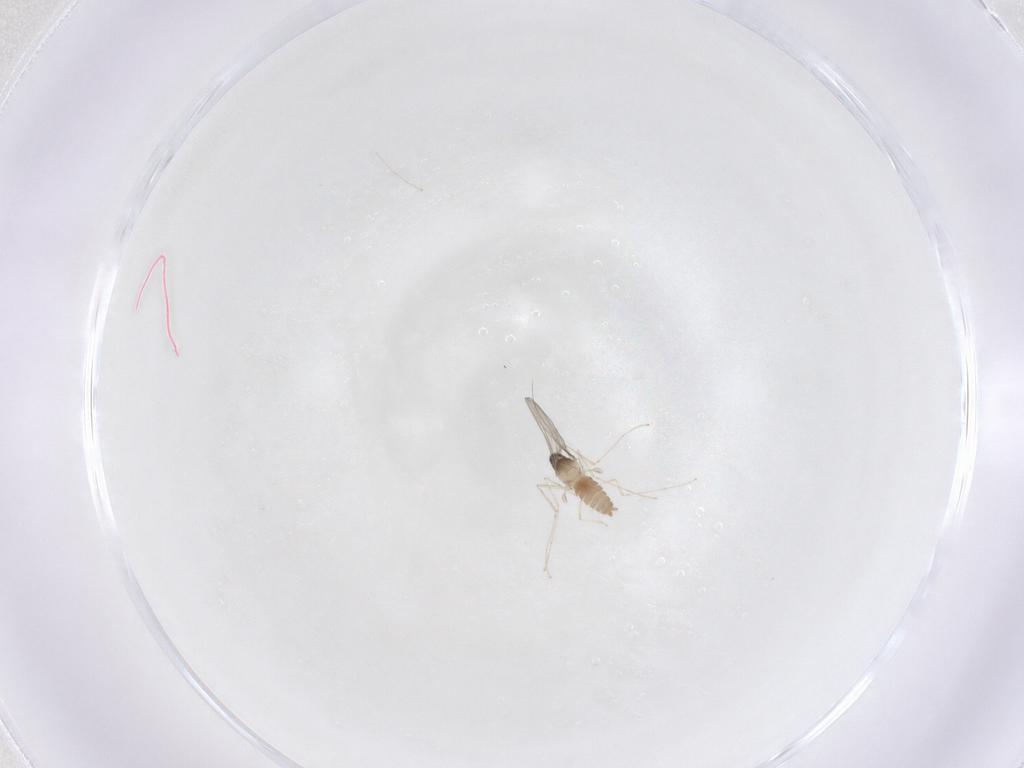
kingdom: Animalia
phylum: Arthropoda
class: Insecta
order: Diptera
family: Cecidomyiidae
